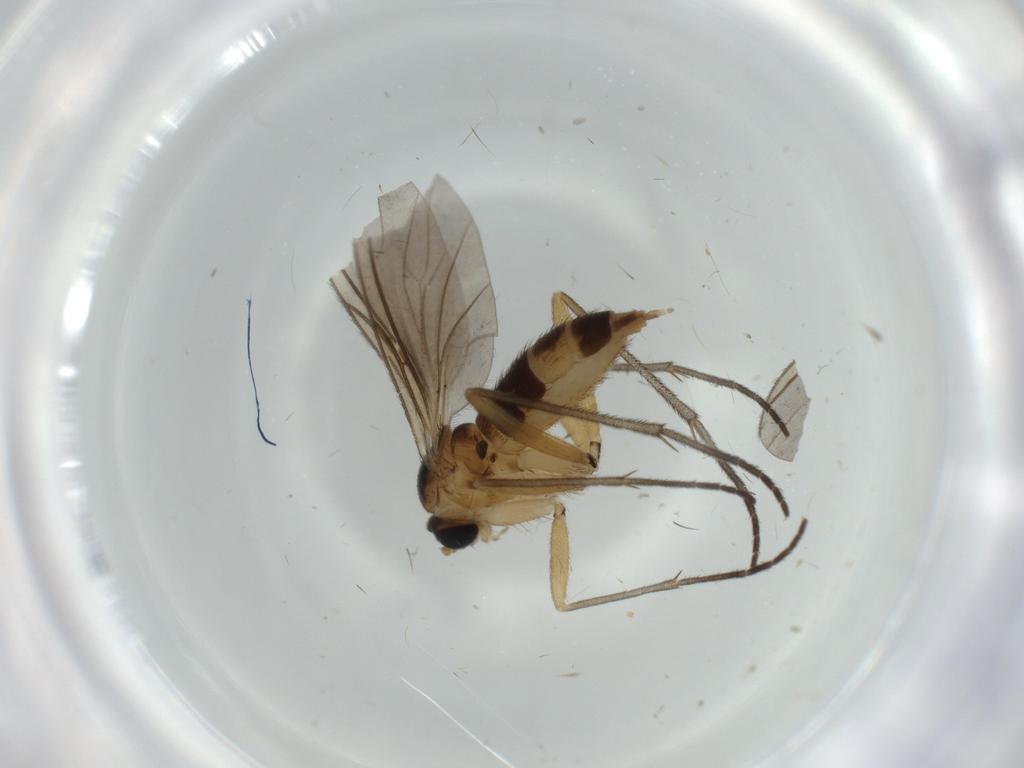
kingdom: Animalia
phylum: Arthropoda
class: Insecta
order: Diptera
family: Sciaridae
